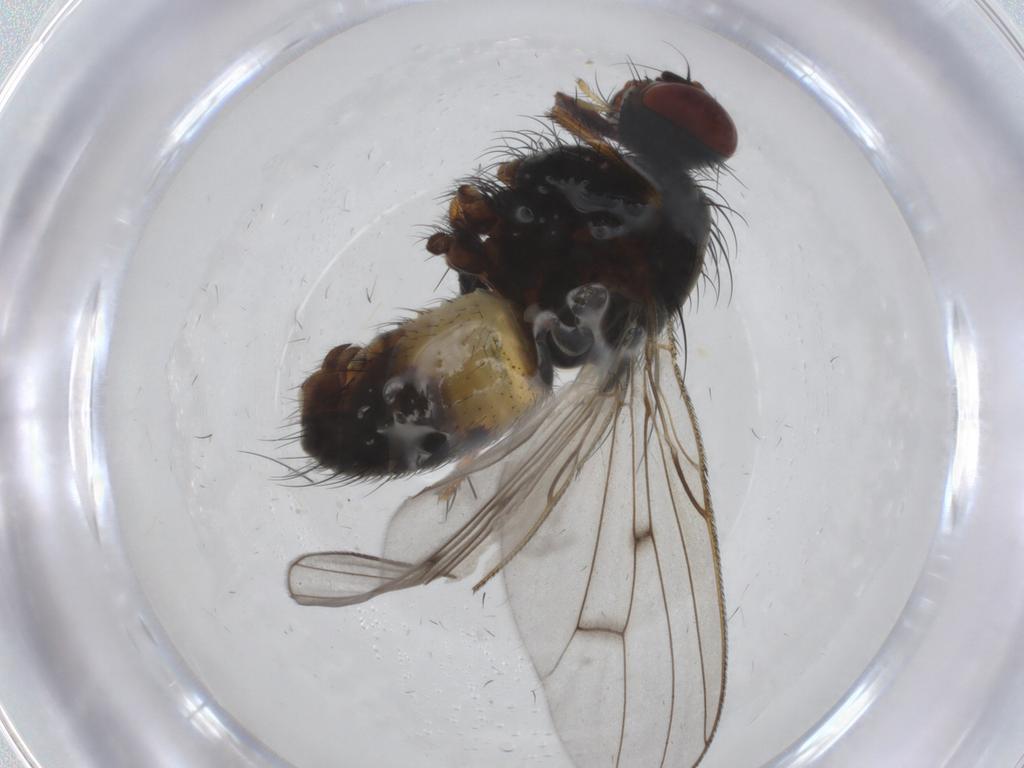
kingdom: Animalia
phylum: Arthropoda
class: Insecta
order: Diptera
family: Muscidae
